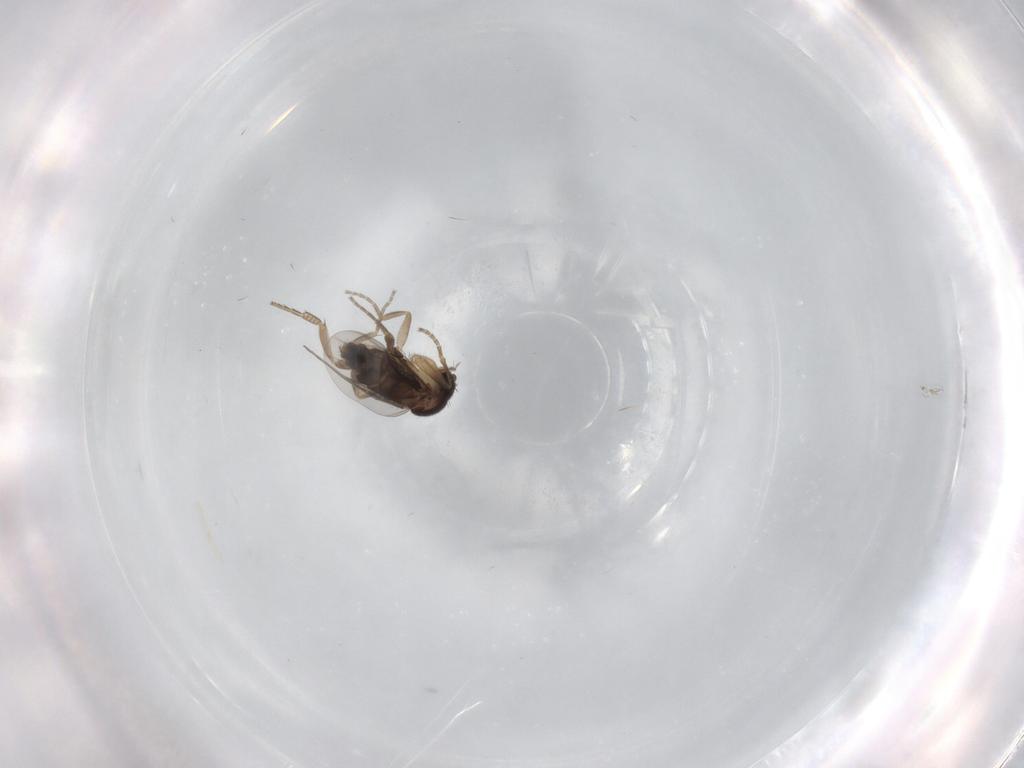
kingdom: Animalia
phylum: Arthropoda
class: Insecta
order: Diptera
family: Phoridae
